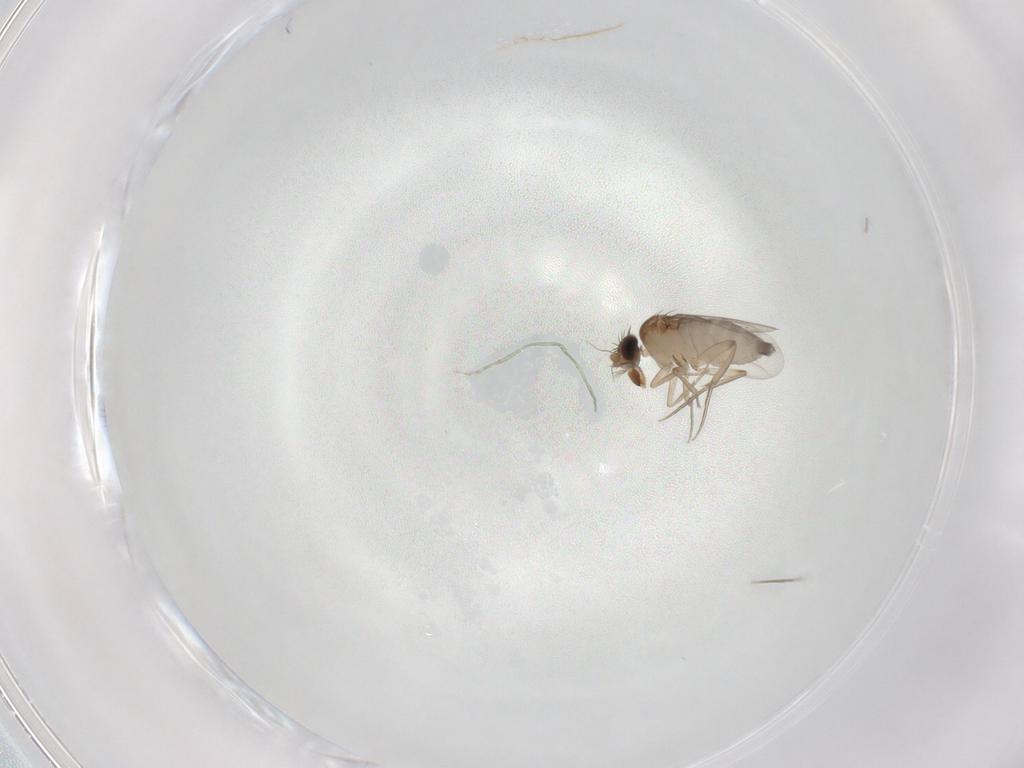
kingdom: Animalia
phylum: Arthropoda
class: Insecta
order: Diptera
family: Phoridae
